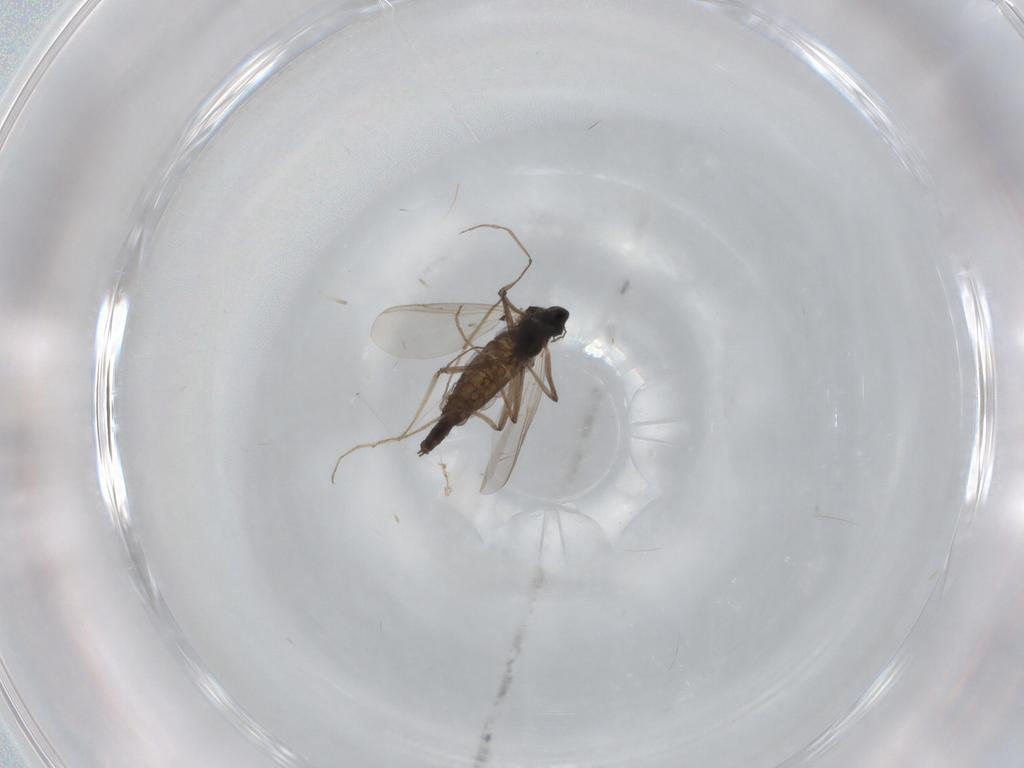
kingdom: Animalia
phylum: Arthropoda
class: Insecta
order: Diptera
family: Chironomidae
